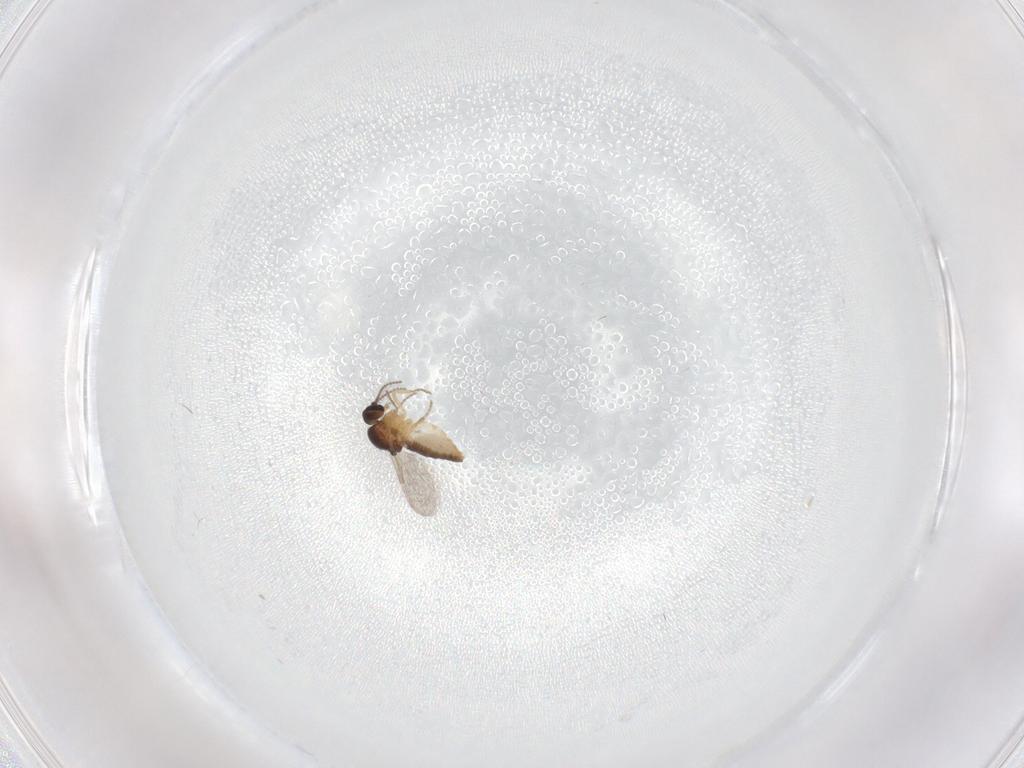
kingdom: Animalia
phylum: Arthropoda
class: Insecta
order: Diptera
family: Ceratopogonidae
